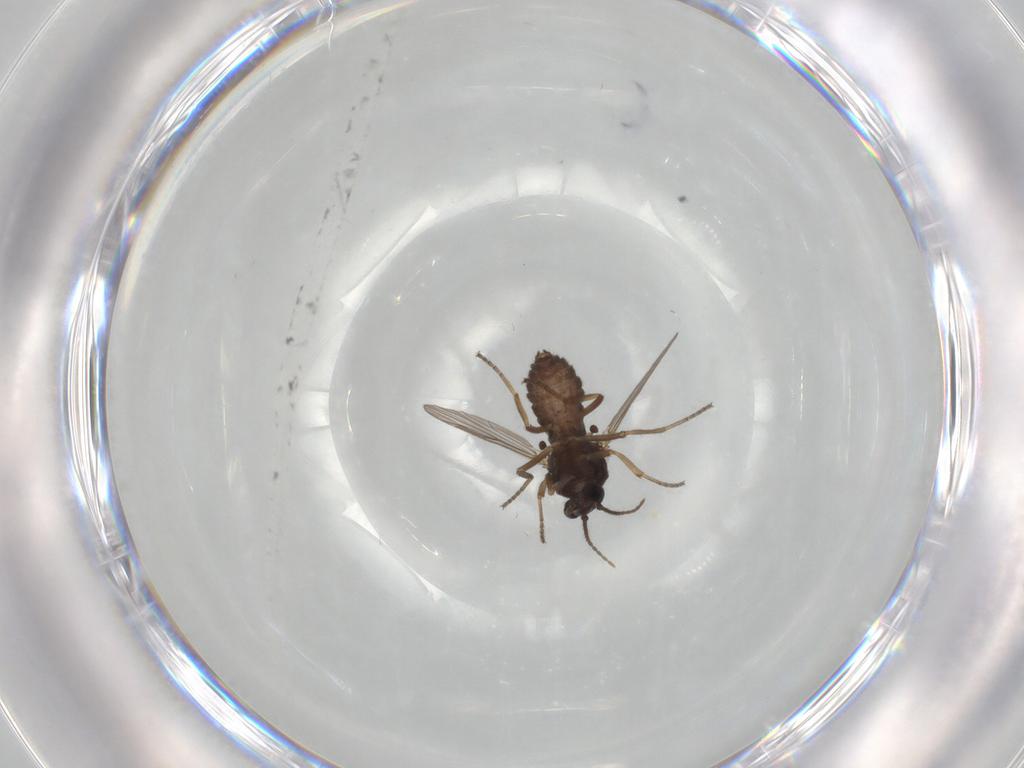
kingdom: Animalia
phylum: Arthropoda
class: Insecta
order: Diptera
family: Ceratopogonidae
